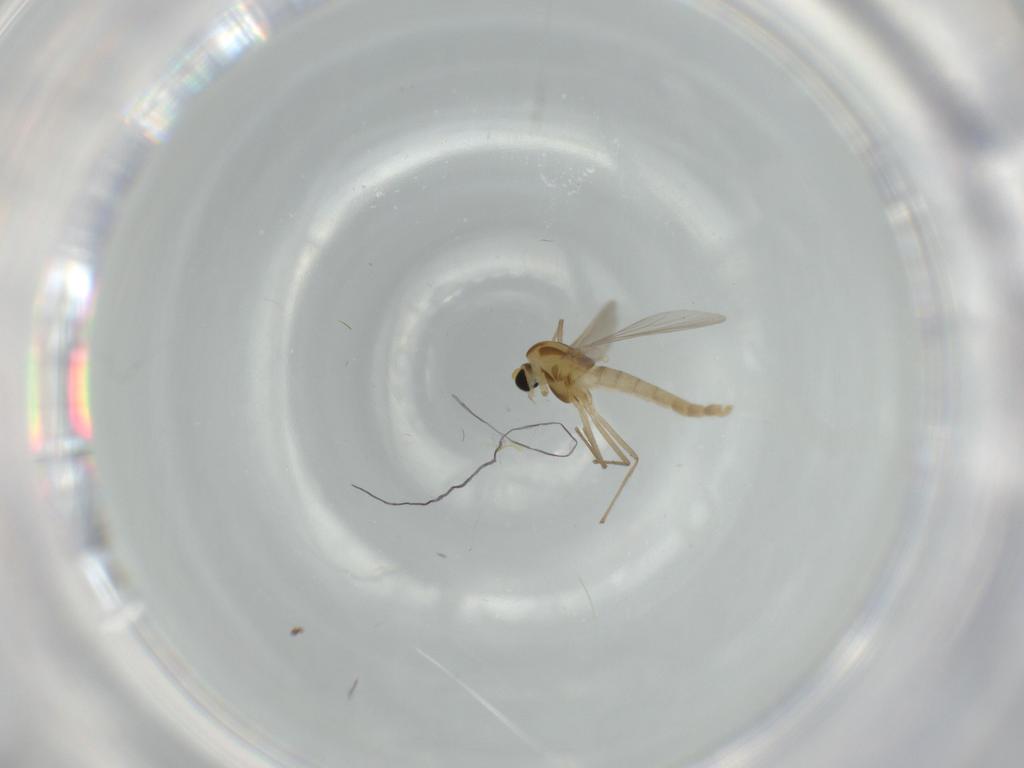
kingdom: Animalia
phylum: Arthropoda
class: Insecta
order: Diptera
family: Chironomidae
